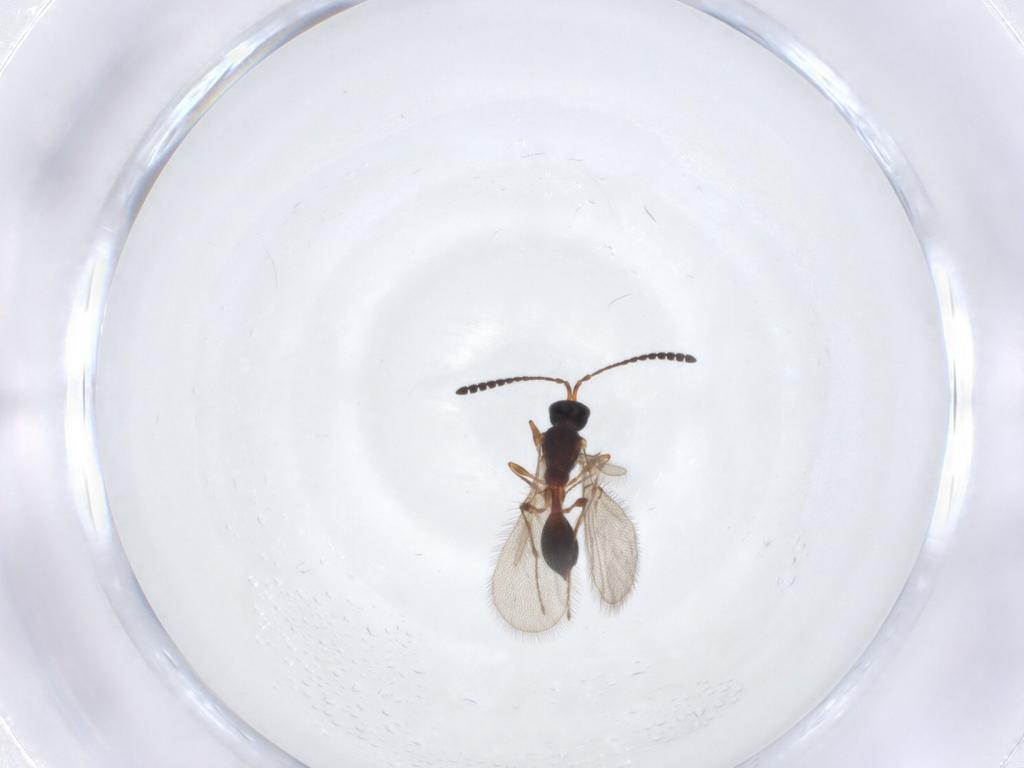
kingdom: Animalia
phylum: Arthropoda
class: Insecta
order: Hymenoptera
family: Diapriidae
